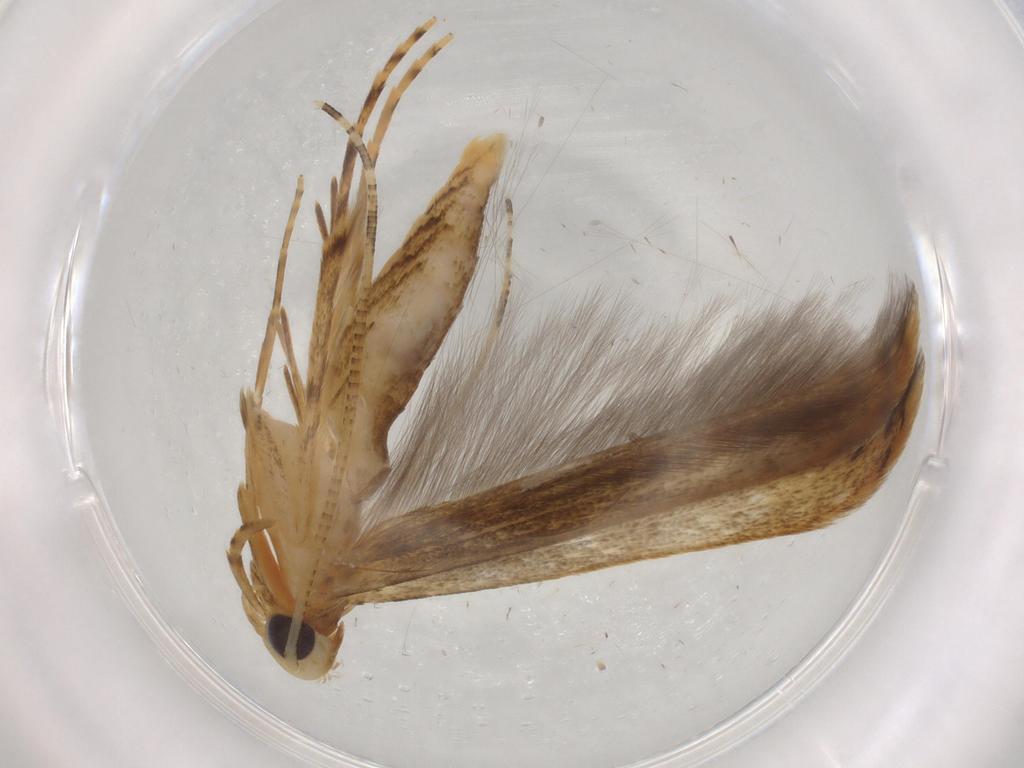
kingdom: Animalia
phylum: Arthropoda
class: Insecta
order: Lepidoptera
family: Batrachedridae
